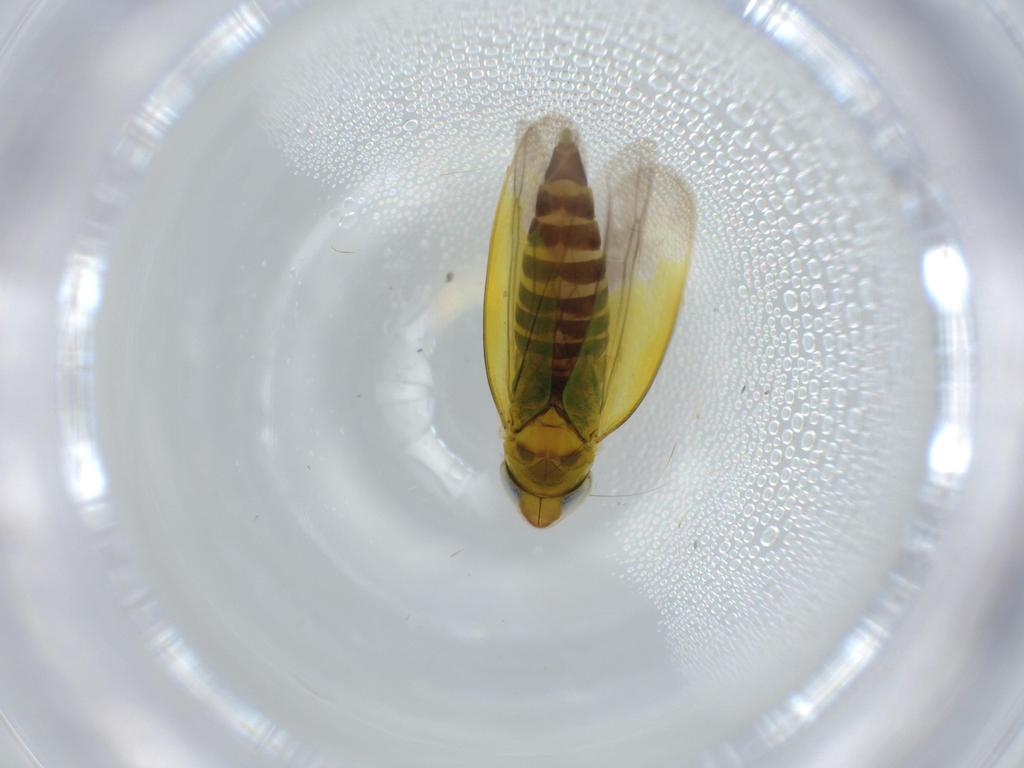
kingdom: Animalia
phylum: Arthropoda
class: Insecta
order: Hemiptera
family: Cicadellidae
